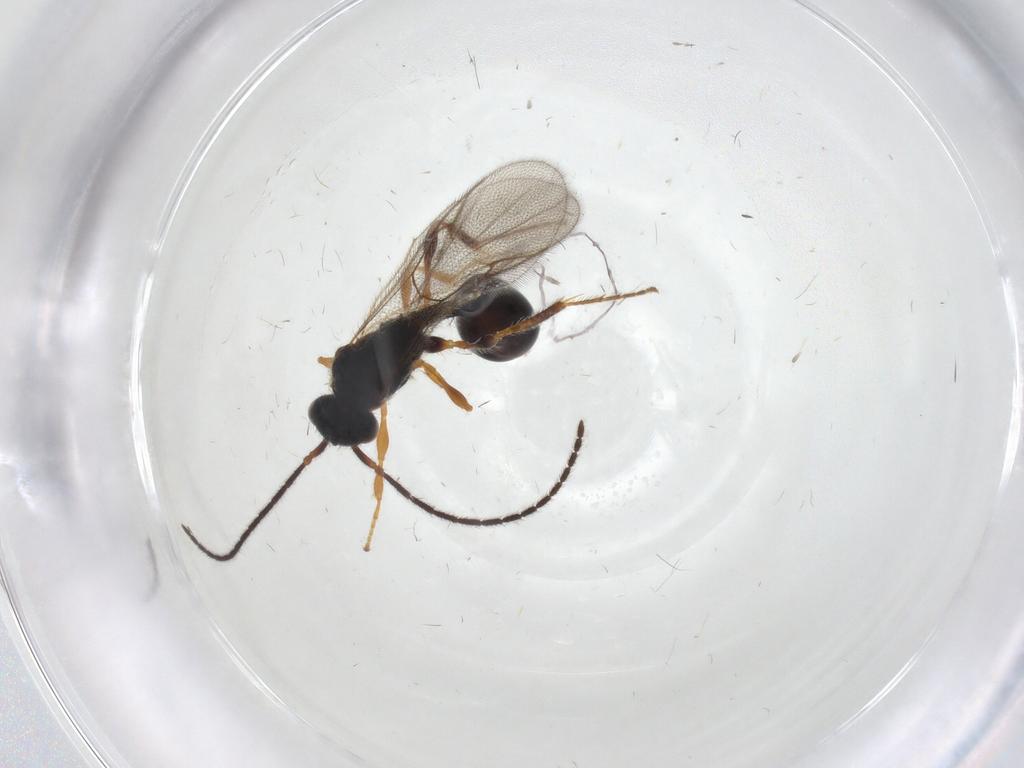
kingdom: Animalia
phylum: Arthropoda
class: Insecta
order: Hymenoptera
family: Diapriidae
